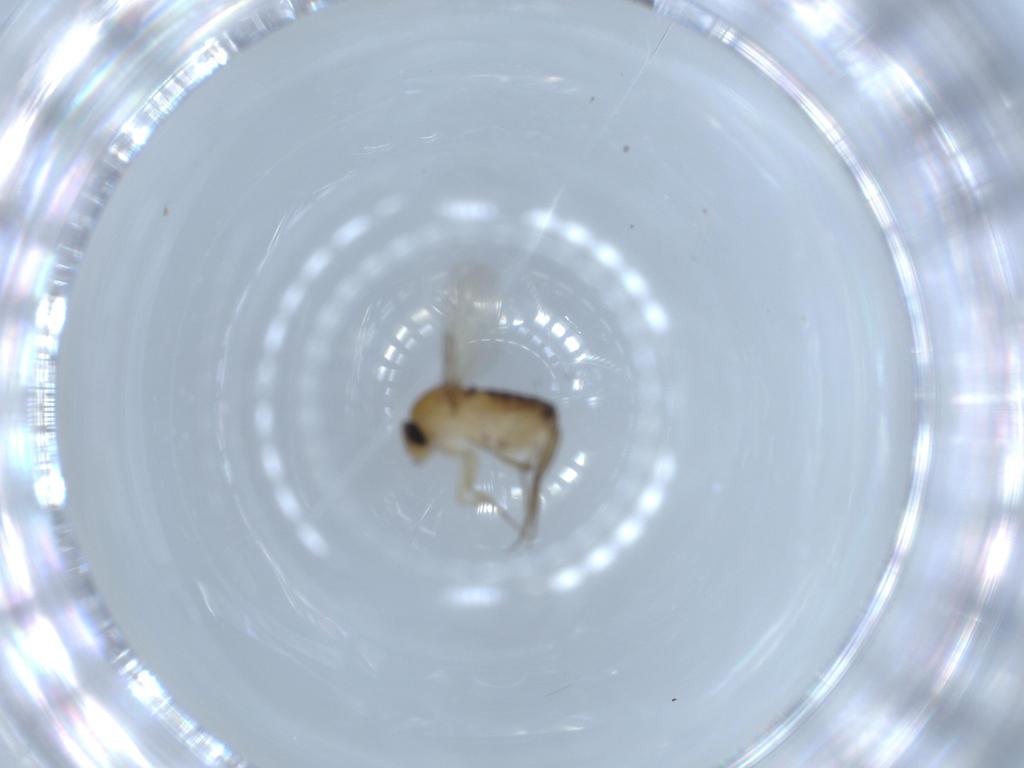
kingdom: Animalia
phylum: Arthropoda
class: Insecta
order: Diptera
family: Phoridae
